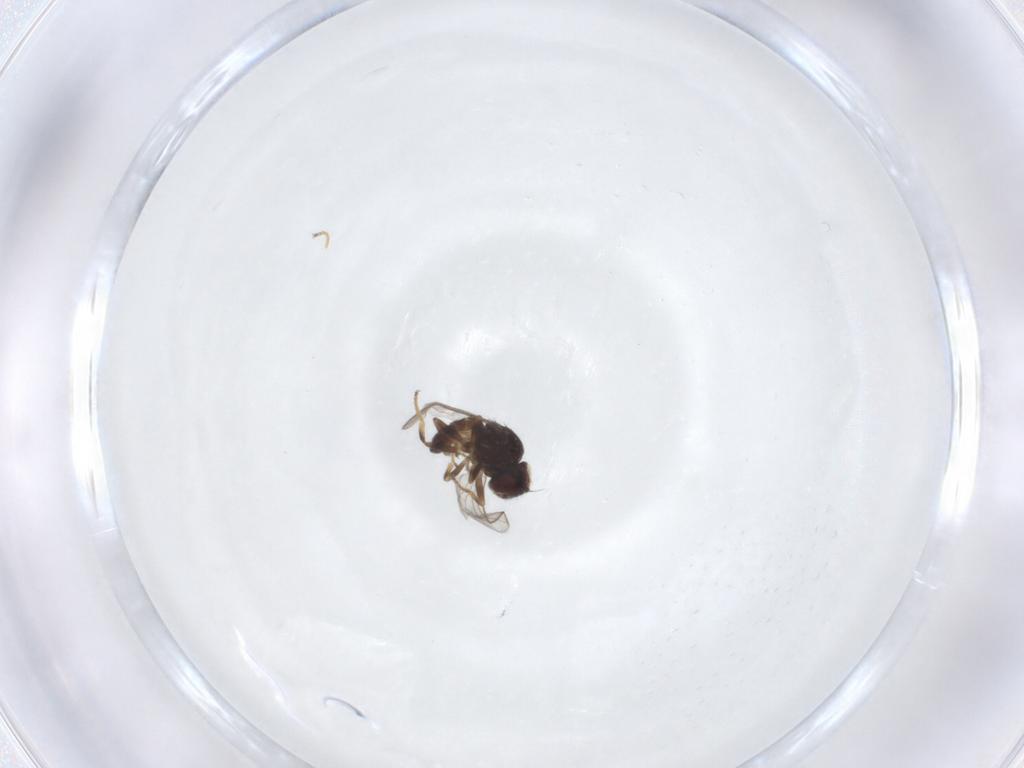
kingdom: Animalia
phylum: Arthropoda
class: Insecta
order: Diptera
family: Chloropidae
